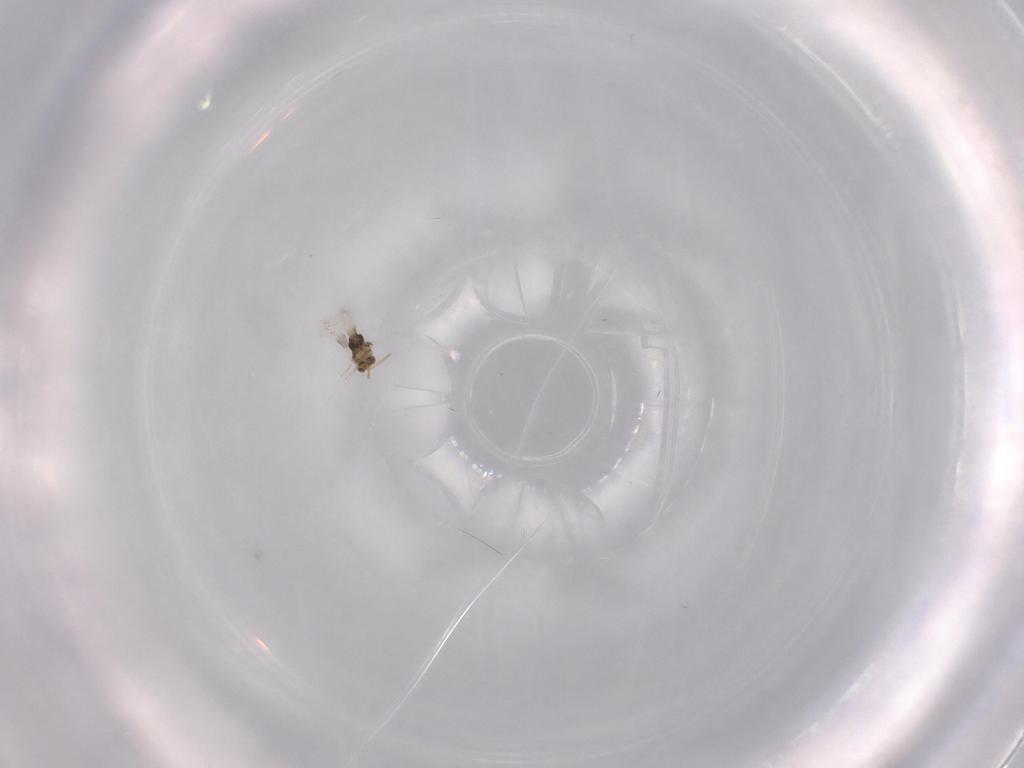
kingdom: Animalia
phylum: Arthropoda
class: Insecta
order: Hymenoptera
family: Aphelinidae
